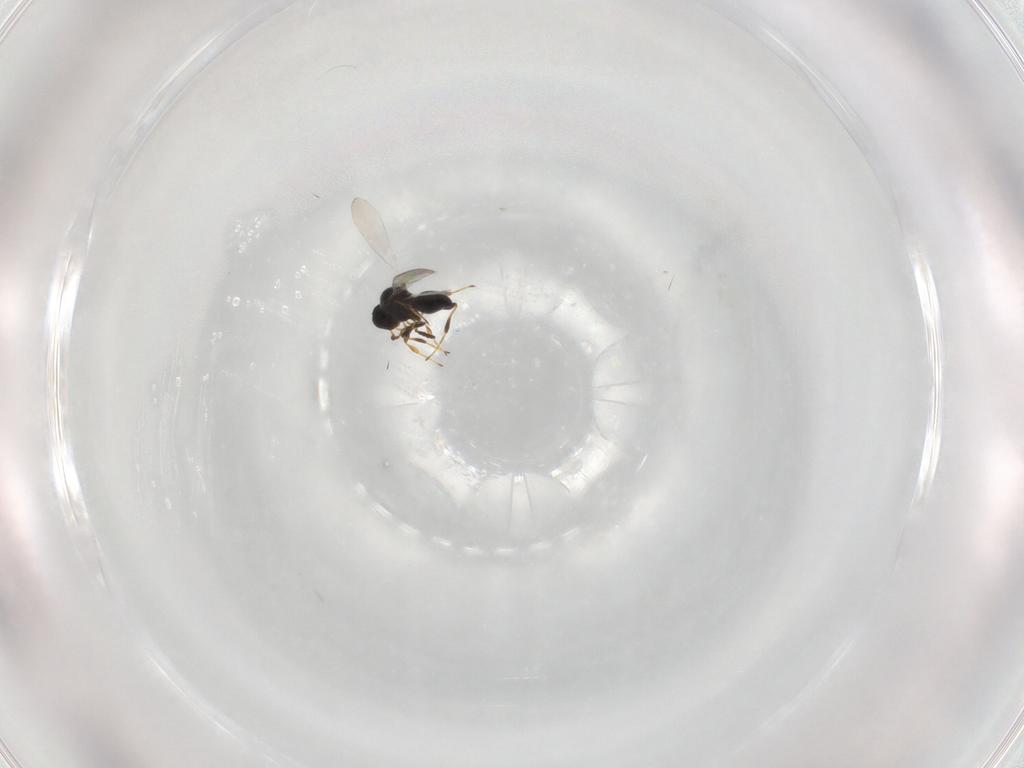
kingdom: Animalia
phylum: Arthropoda
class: Insecta
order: Hymenoptera
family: Platygastridae
